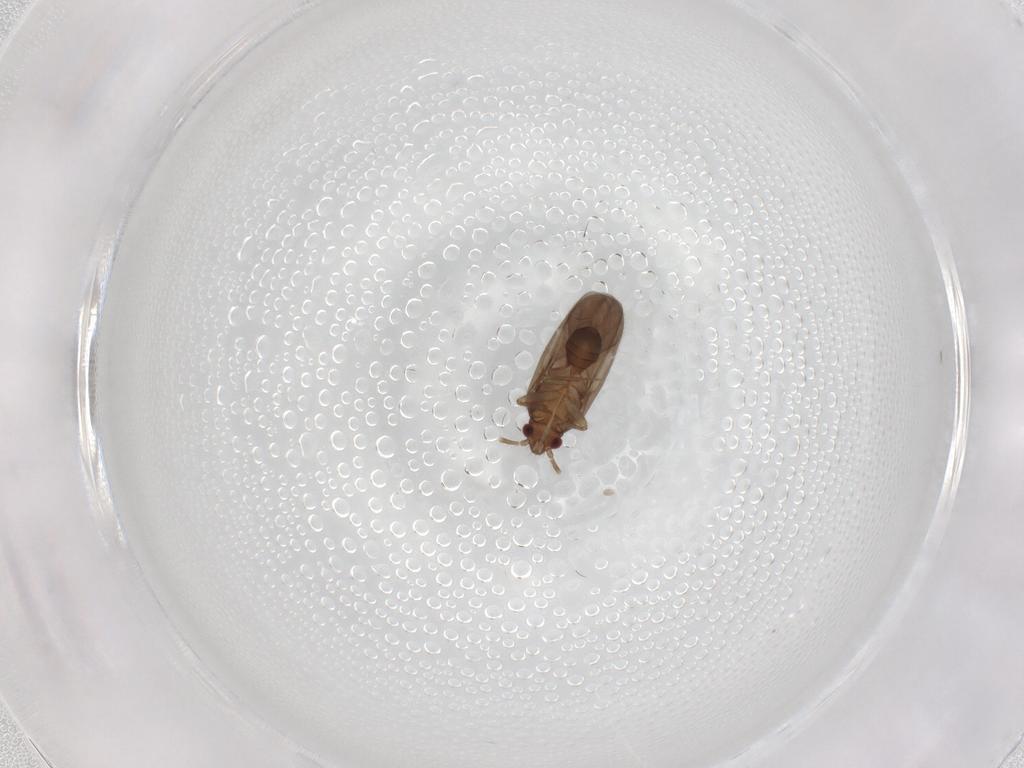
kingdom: Animalia
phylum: Arthropoda
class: Insecta
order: Hemiptera
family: Ceratocombidae
